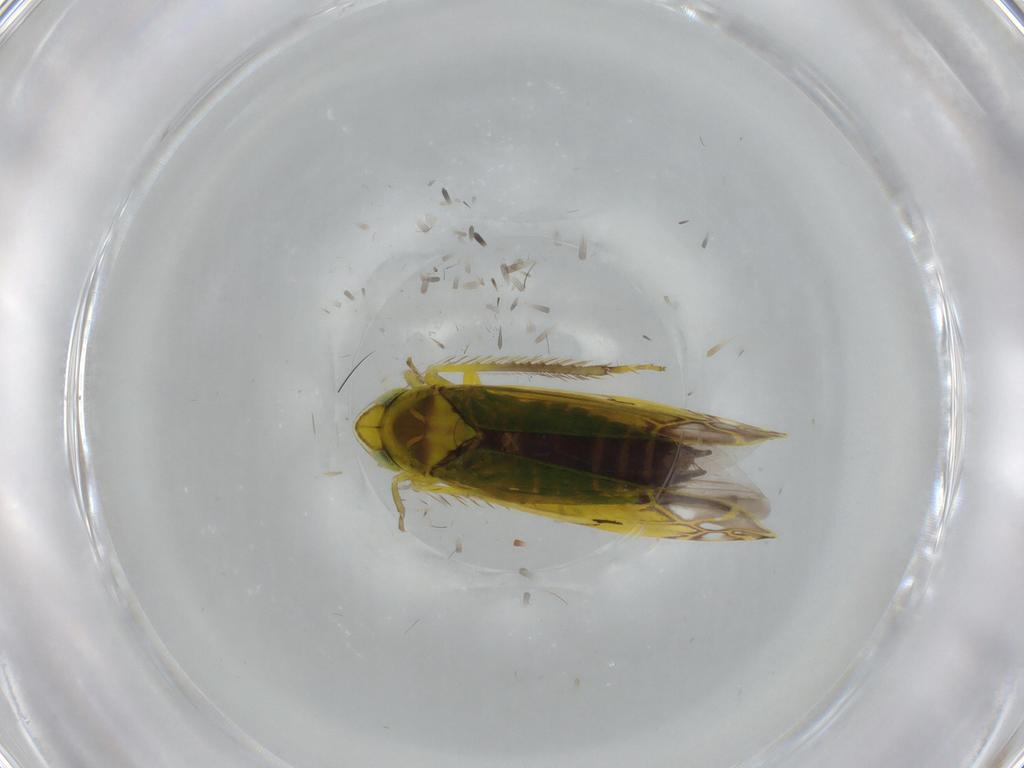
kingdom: Animalia
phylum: Arthropoda
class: Insecta
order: Hemiptera
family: Cicadellidae
